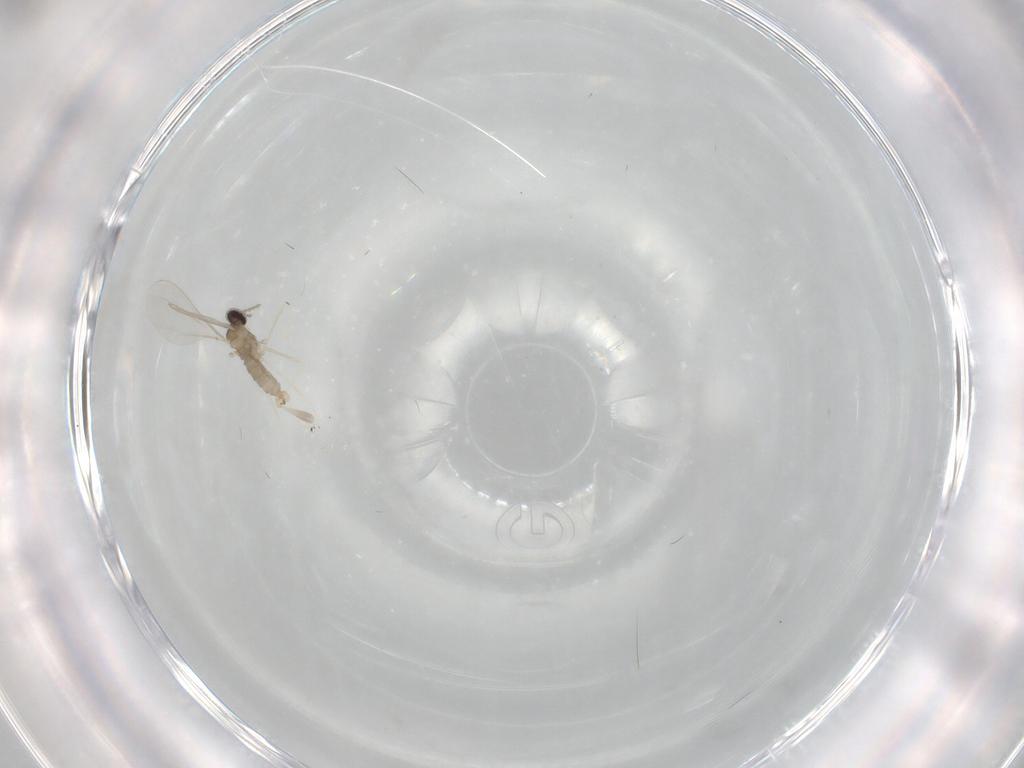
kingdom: Animalia
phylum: Arthropoda
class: Insecta
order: Diptera
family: Cecidomyiidae
